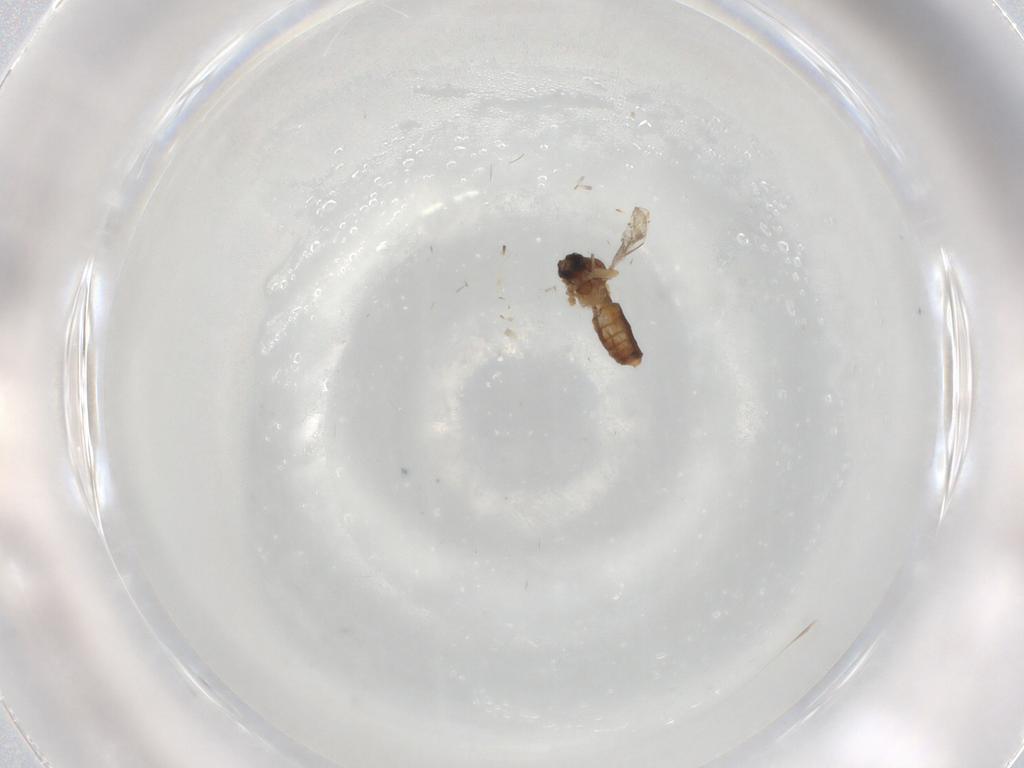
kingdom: Animalia
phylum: Arthropoda
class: Insecta
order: Diptera
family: Ceratopogonidae
